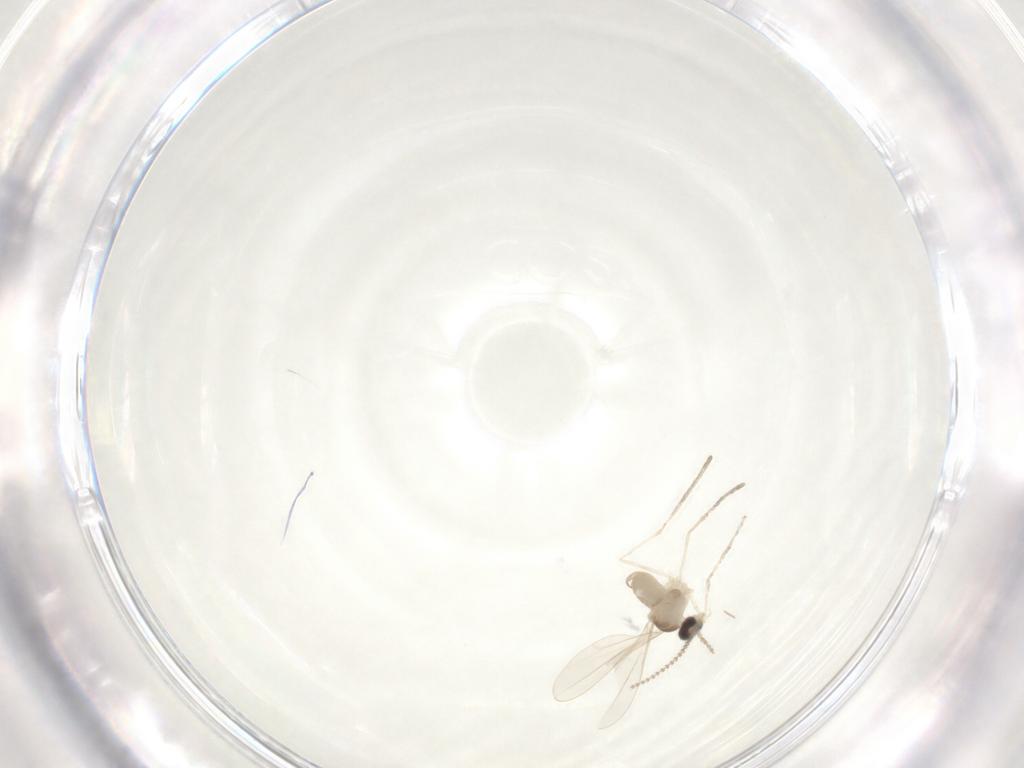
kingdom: Animalia
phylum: Arthropoda
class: Insecta
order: Diptera
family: Cecidomyiidae
